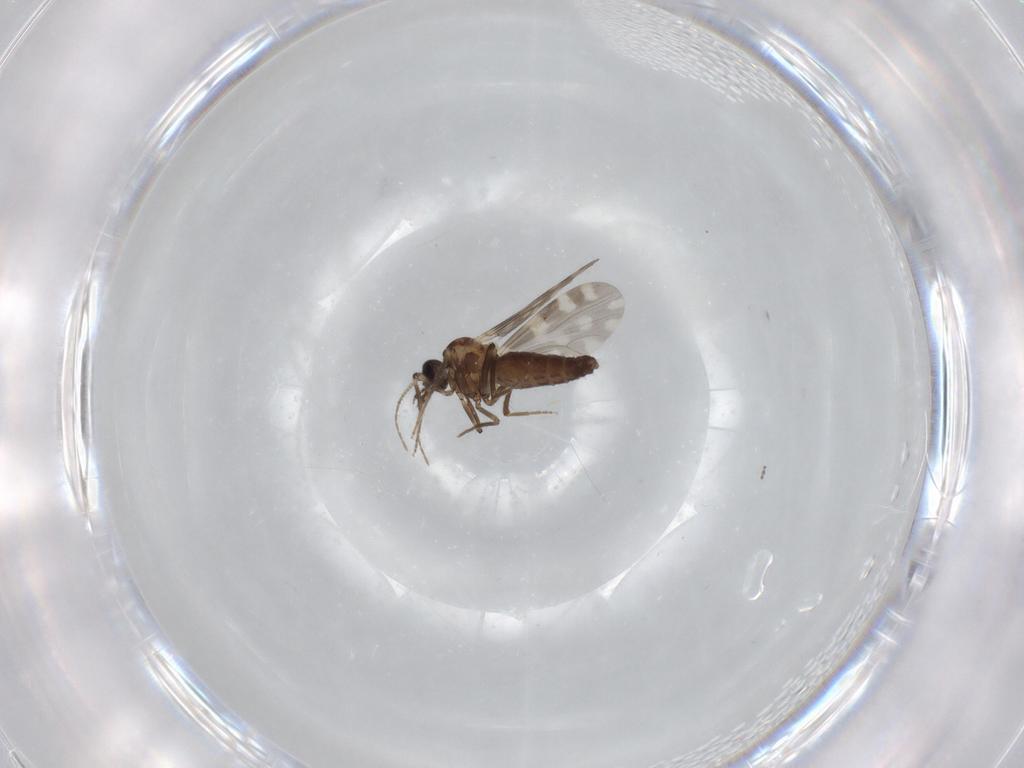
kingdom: Animalia
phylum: Arthropoda
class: Insecta
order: Diptera
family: Ceratopogonidae
